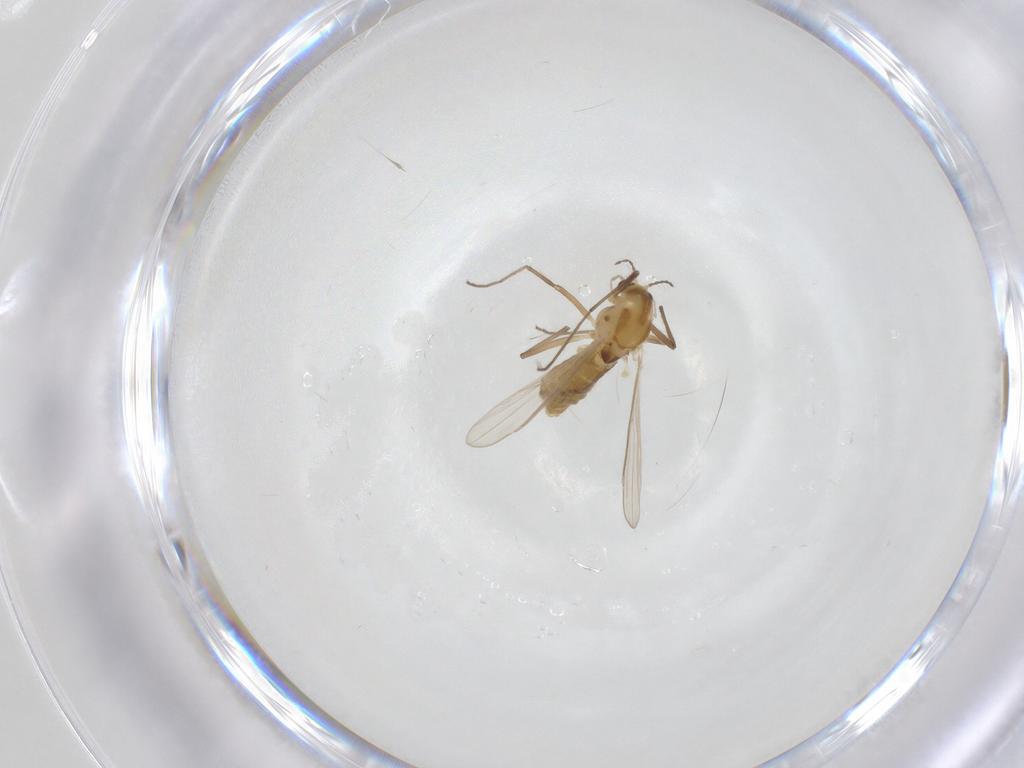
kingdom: Animalia
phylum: Arthropoda
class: Insecta
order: Diptera
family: Chironomidae
